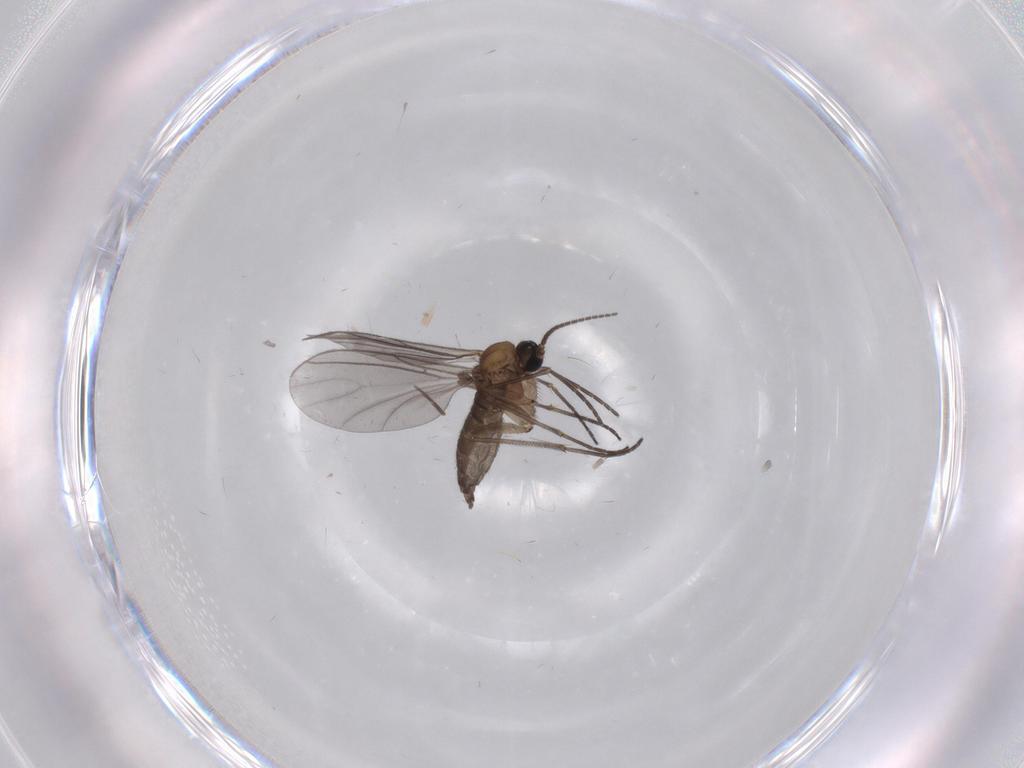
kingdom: Animalia
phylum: Arthropoda
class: Insecta
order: Diptera
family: Sciaridae
